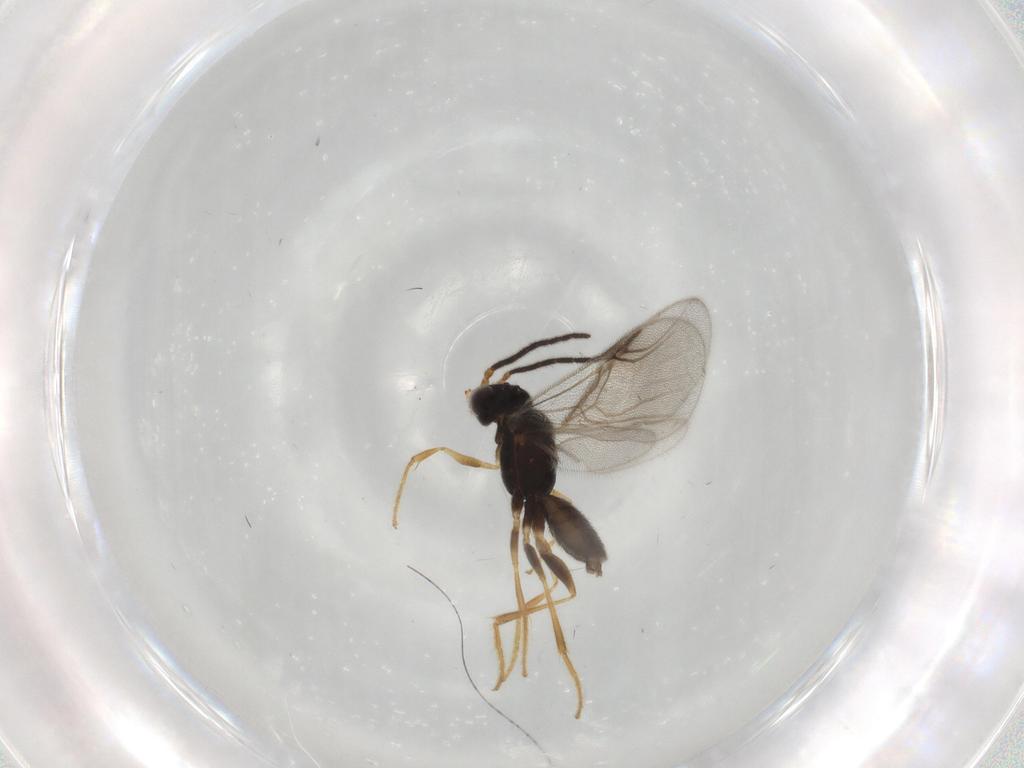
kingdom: Animalia
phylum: Arthropoda
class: Insecta
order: Hymenoptera
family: Dryinidae
